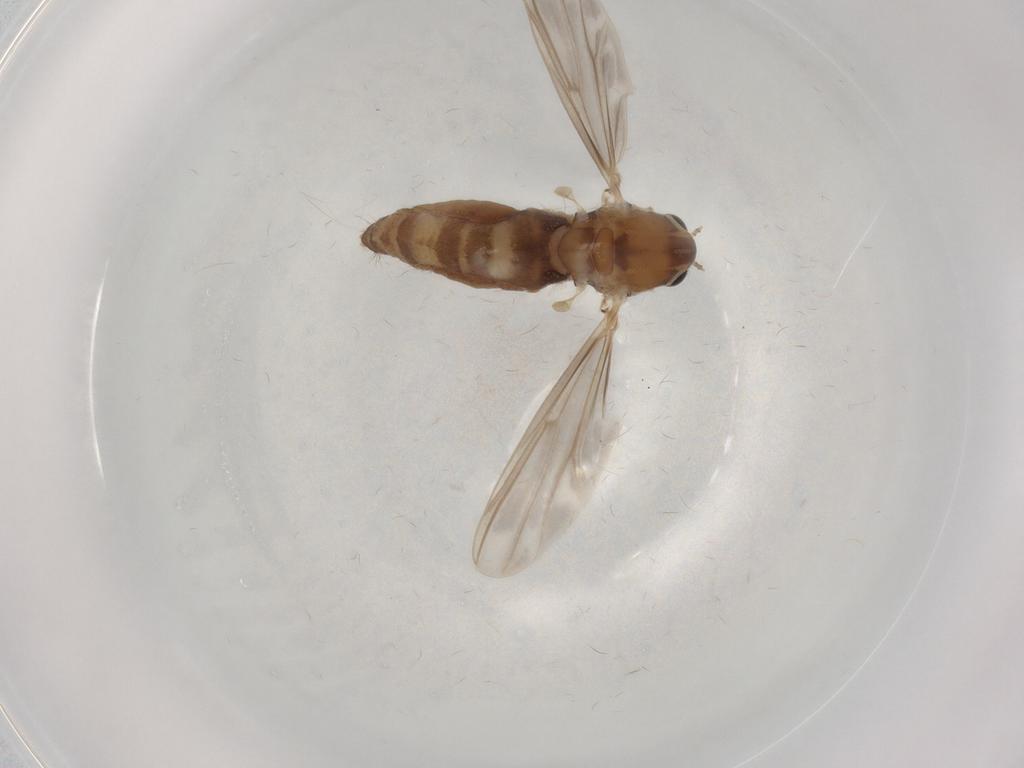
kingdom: Animalia
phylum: Arthropoda
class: Insecta
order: Diptera
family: Chironomidae
